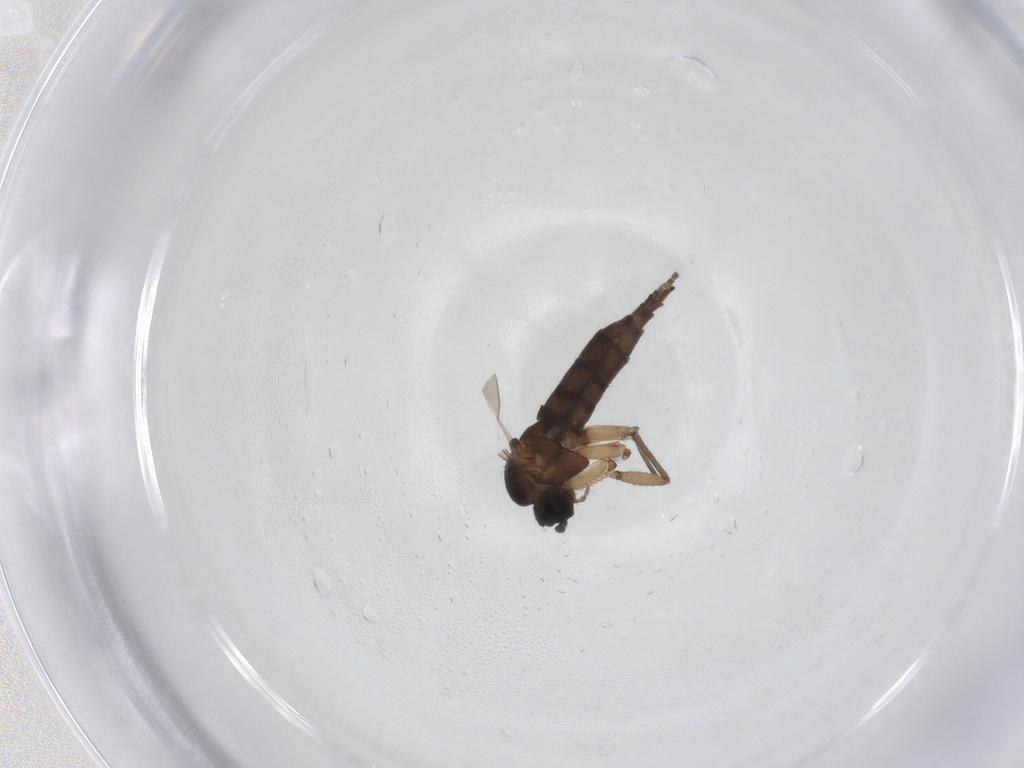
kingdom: Animalia
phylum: Arthropoda
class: Insecta
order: Diptera
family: Sciaridae
